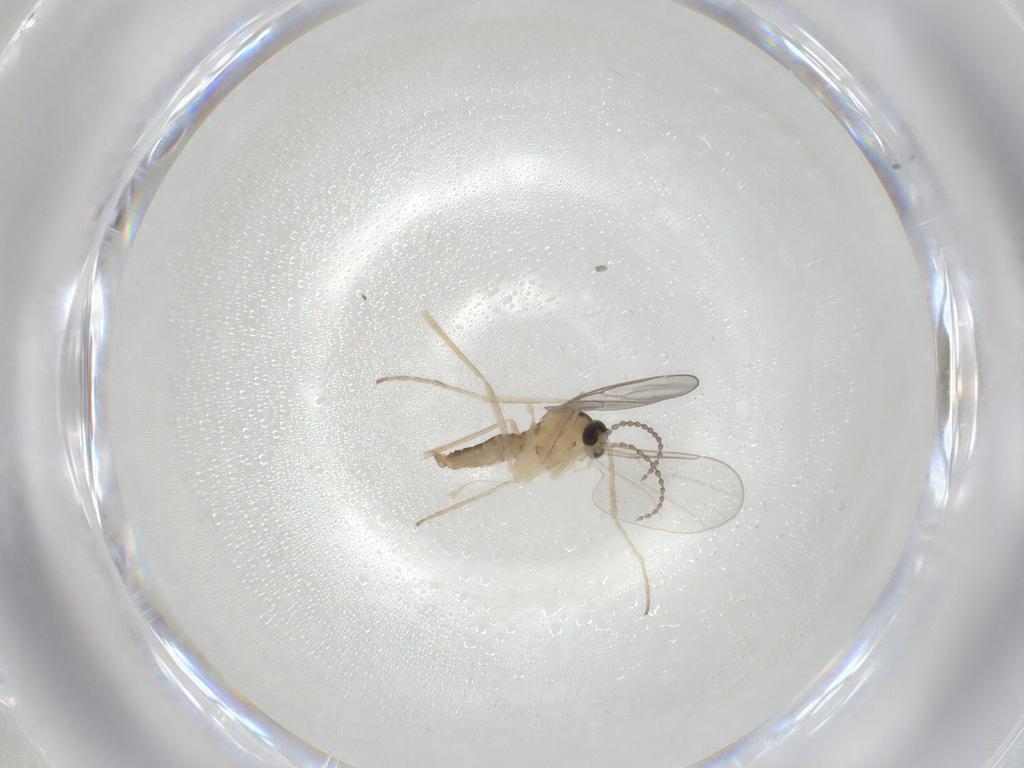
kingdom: Animalia
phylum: Arthropoda
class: Insecta
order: Diptera
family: Cecidomyiidae
